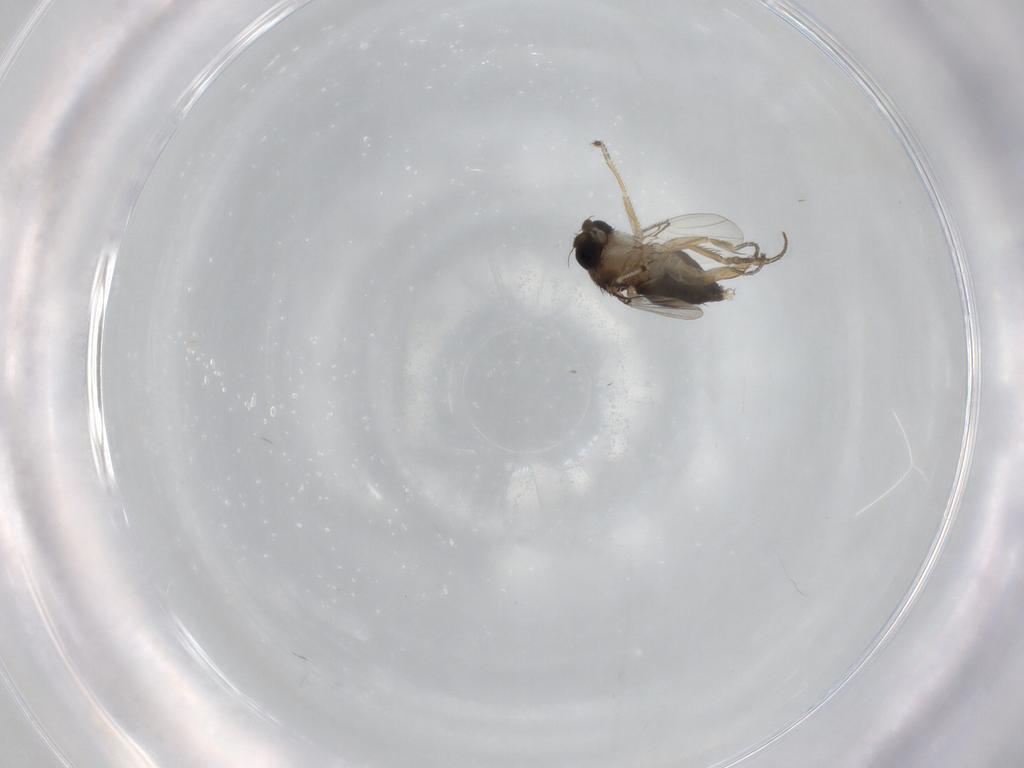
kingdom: Animalia
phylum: Arthropoda
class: Insecta
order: Diptera
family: Phoridae
